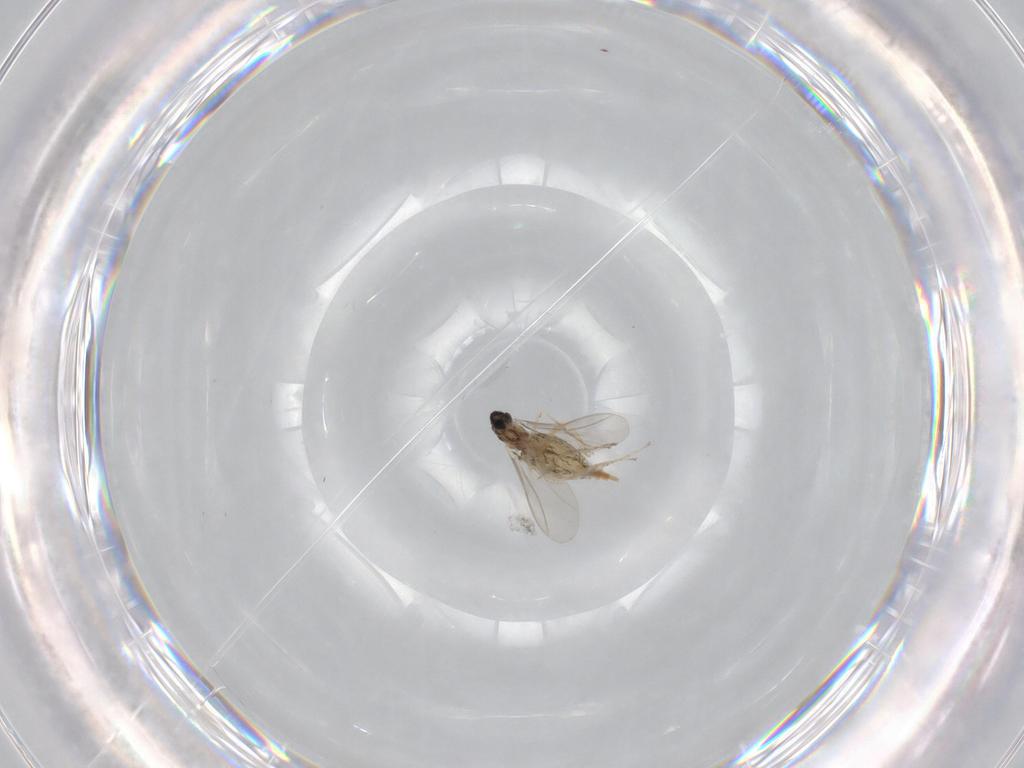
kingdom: Animalia
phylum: Arthropoda
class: Insecta
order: Diptera
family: Cecidomyiidae
